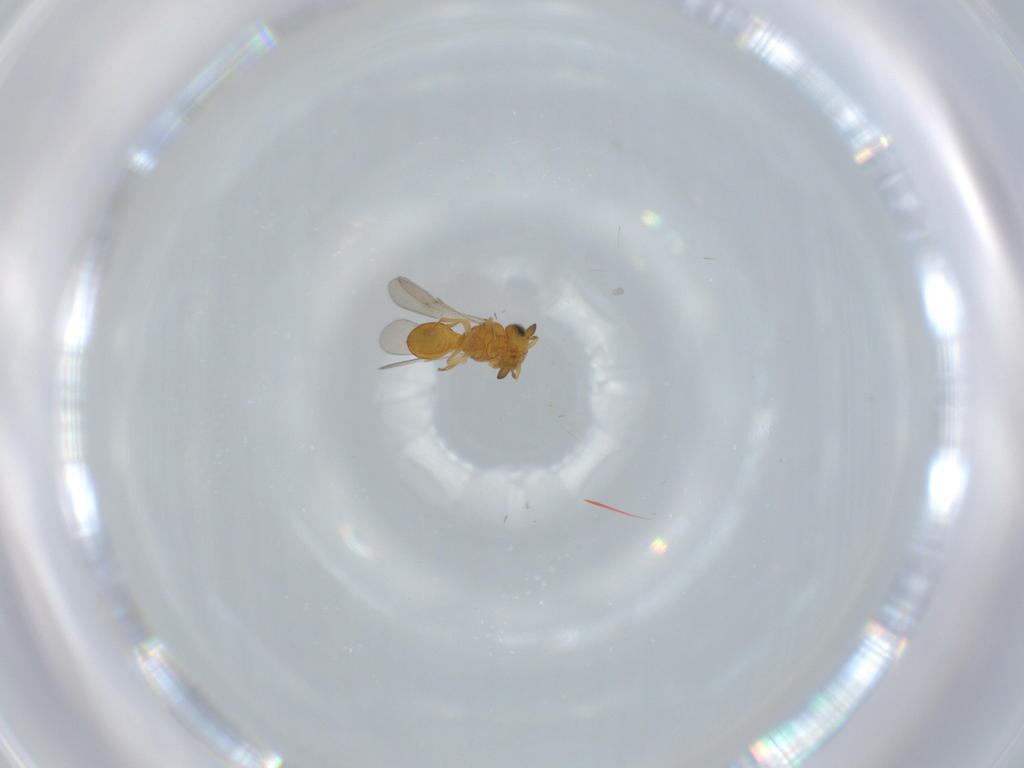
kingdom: Animalia
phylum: Arthropoda
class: Insecta
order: Hymenoptera
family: Scelionidae
